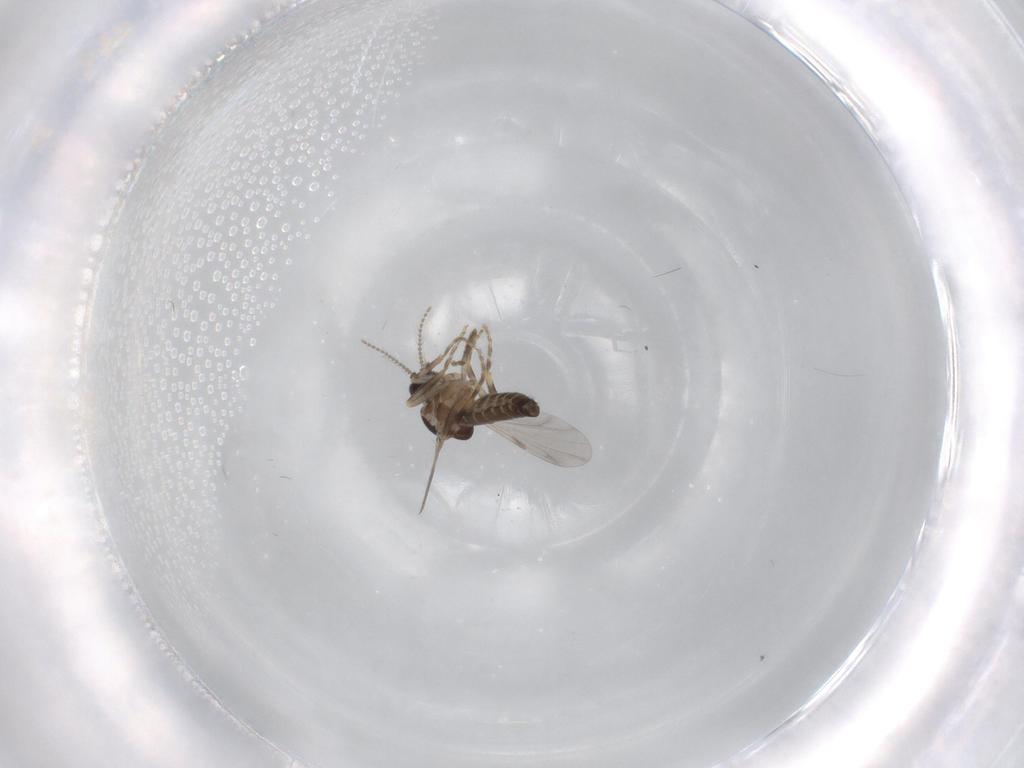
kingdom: Animalia
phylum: Arthropoda
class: Insecta
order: Diptera
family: Ceratopogonidae
